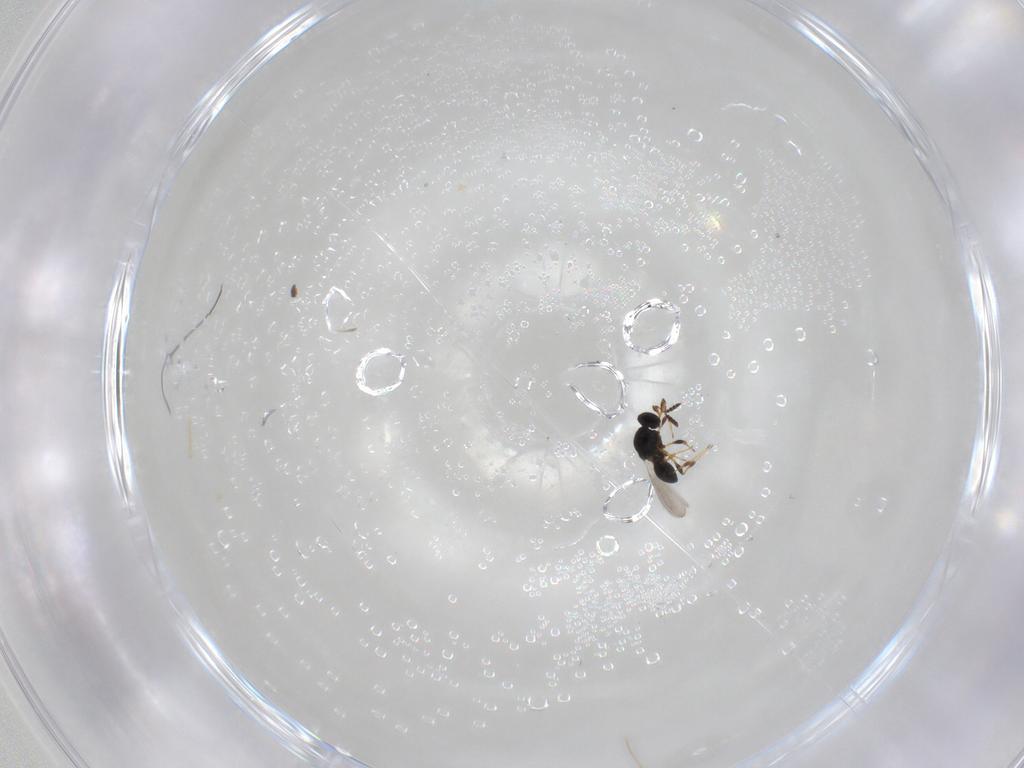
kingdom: Animalia
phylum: Arthropoda
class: Insecta
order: Hymenoptera
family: Platygastridae
